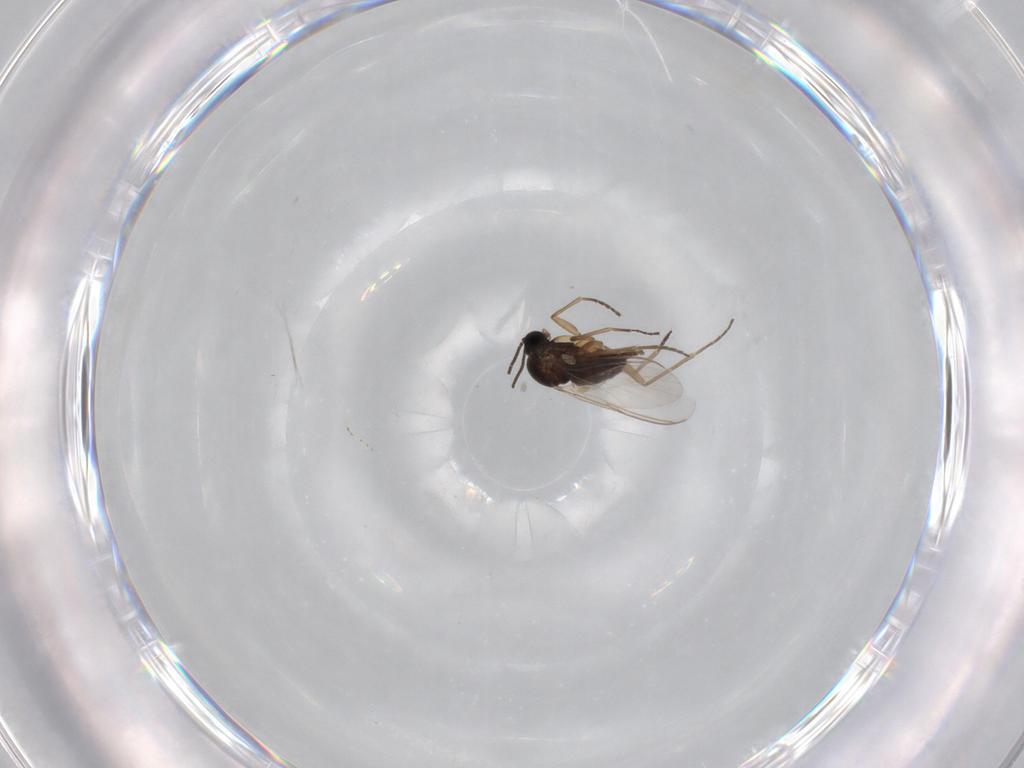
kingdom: Animalia
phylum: Arthropoda
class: Insecta
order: Diptera
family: Sciaridae
